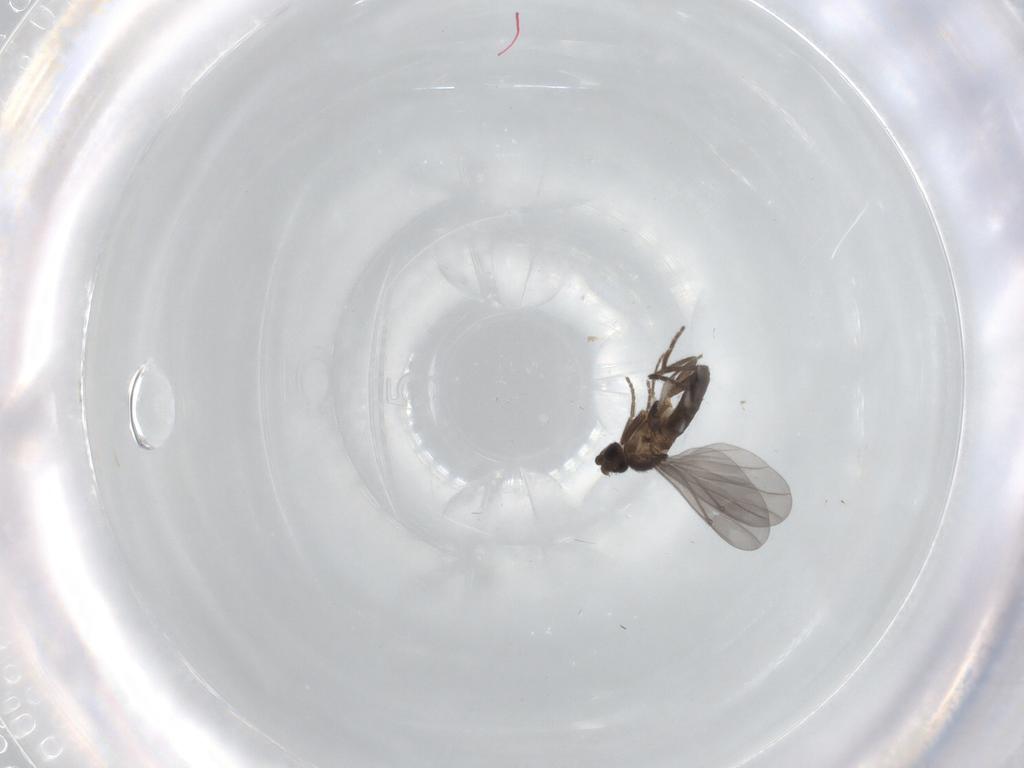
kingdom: Animalia
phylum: Arthropoda
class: Insecta
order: Diptera
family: Phoridae
